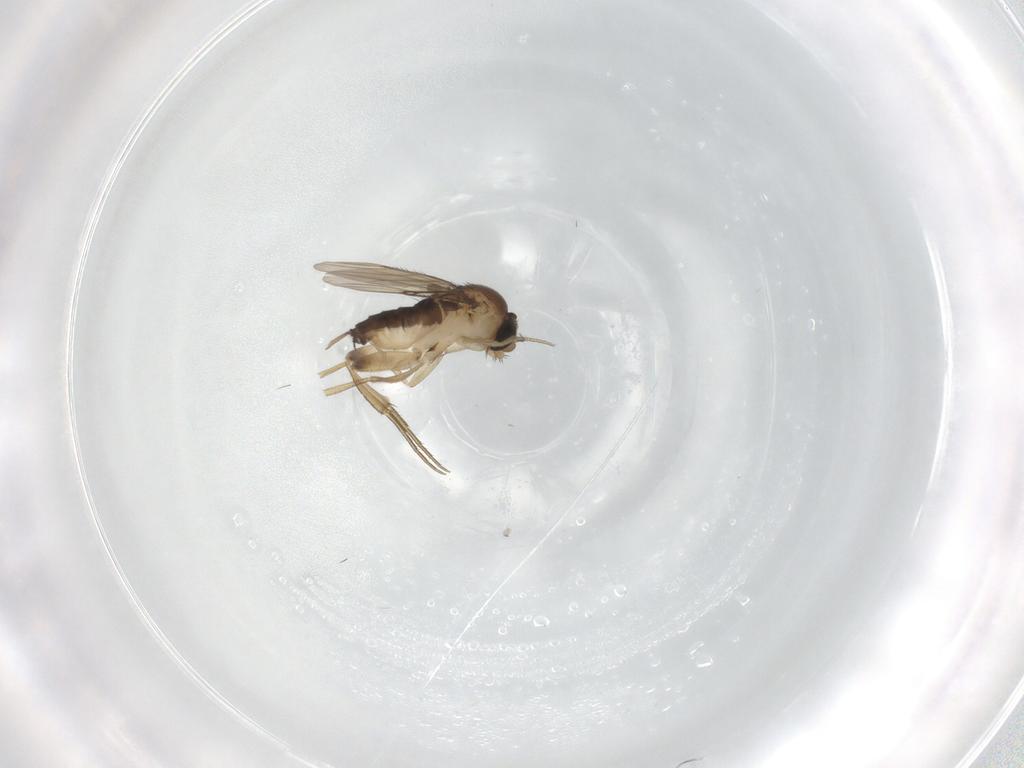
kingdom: Animalia
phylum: Arthropoda
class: Insecta
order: Diptera
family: Phoridae
